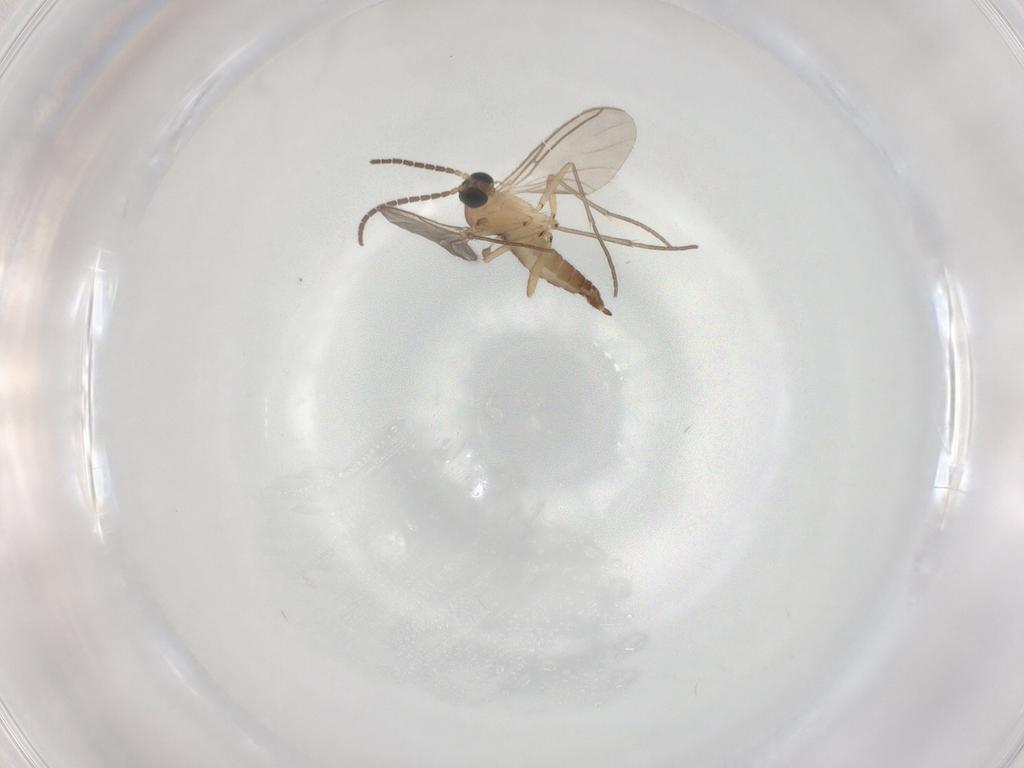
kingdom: Animalia
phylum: Arthropoda
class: Insecta
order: Diptera
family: Sciaridae
